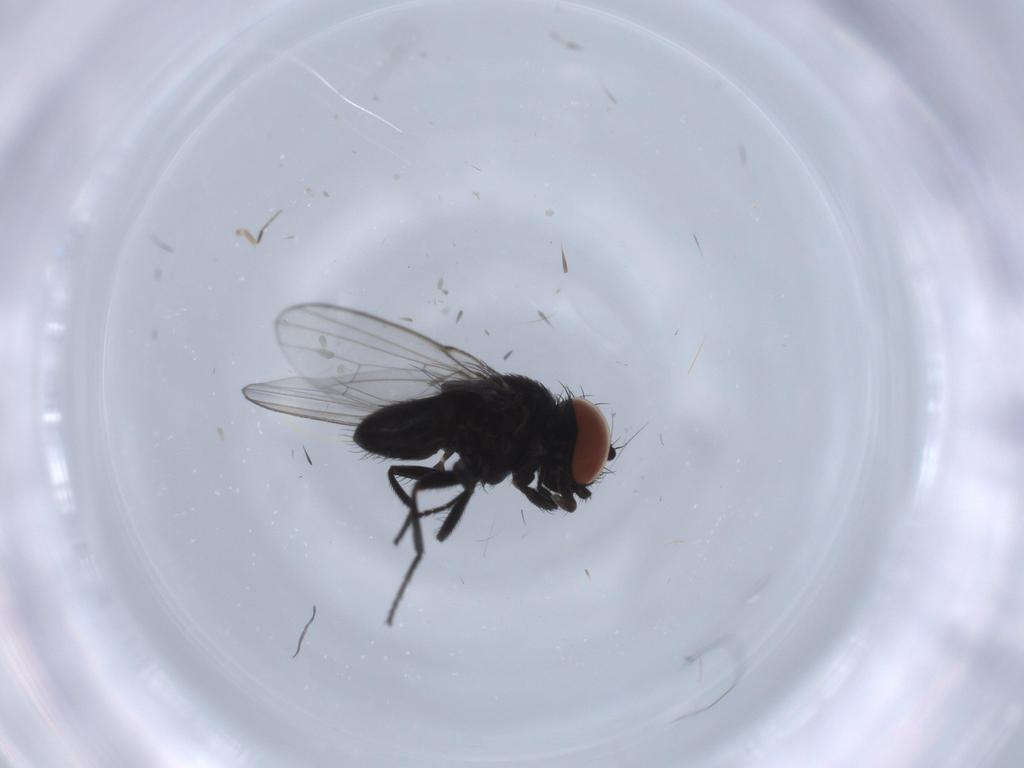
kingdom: Animalia
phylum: Arthropoda
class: Insecta
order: Diptera
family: Milichiidae
